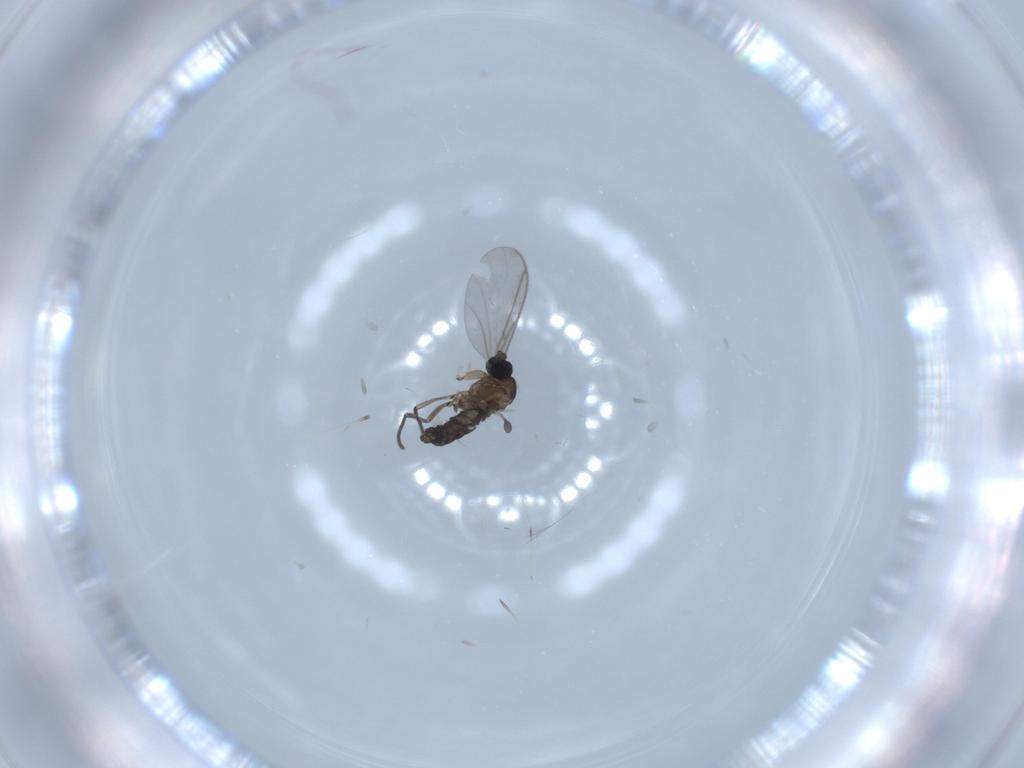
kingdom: Animalia
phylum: Arthropoda
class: Insecta
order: Diptera
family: Sciaridae
